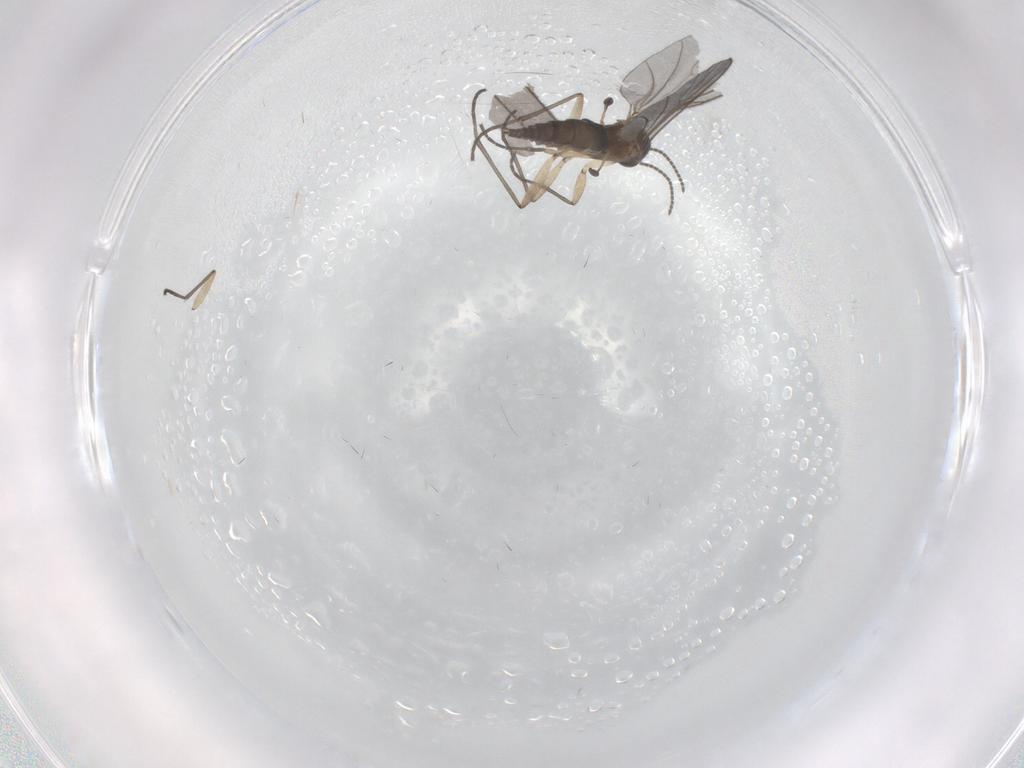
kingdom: Animalia
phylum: Arthropoda
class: Insecta
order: Diptera
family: Sciaridae
